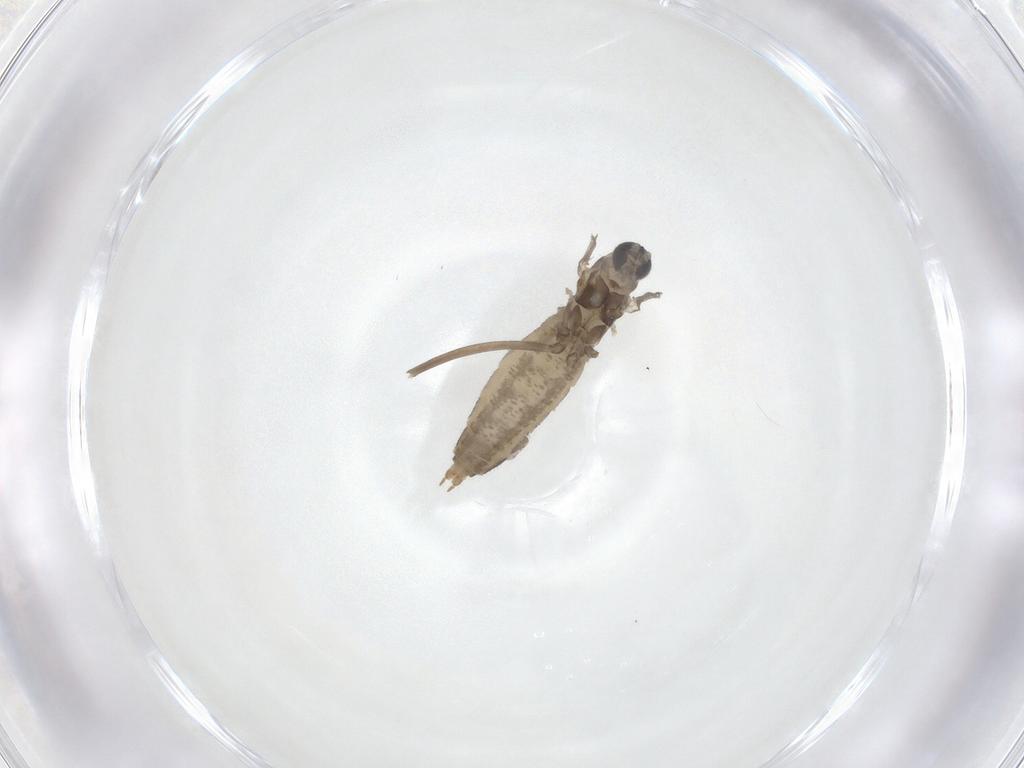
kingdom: Animalia
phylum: Arthropoda
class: Insecta
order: Diptera
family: Cecidomyiidae
